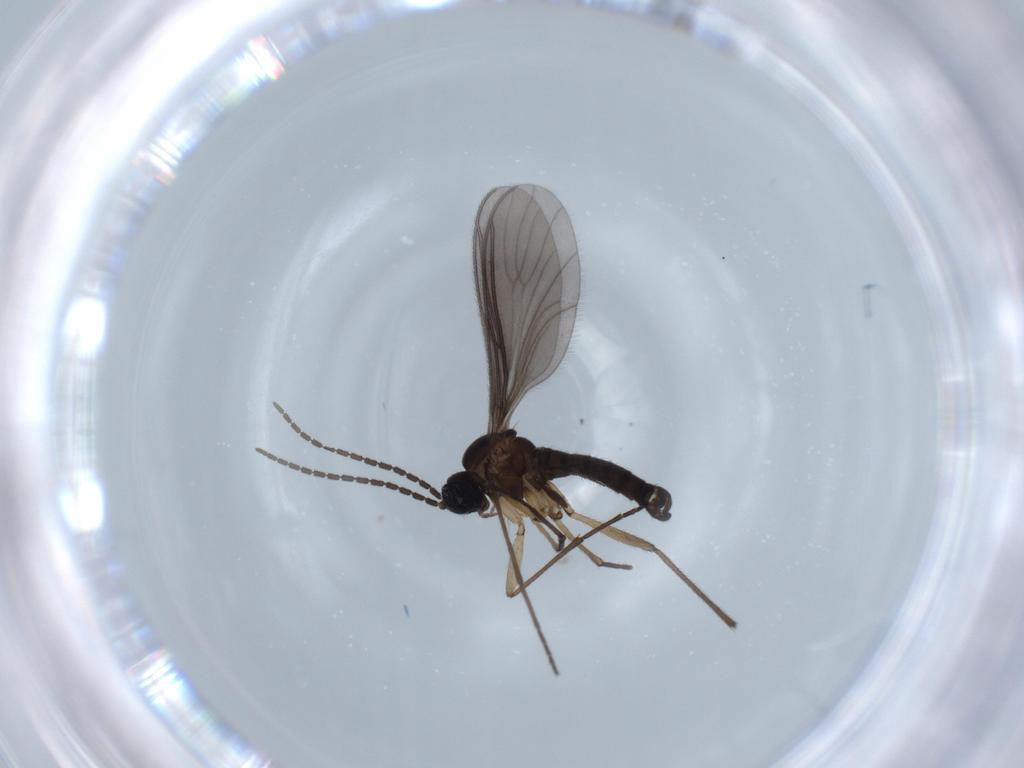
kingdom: Animalia
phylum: Arthropoda
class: Insecta
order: Diptera
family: Sciaridae
